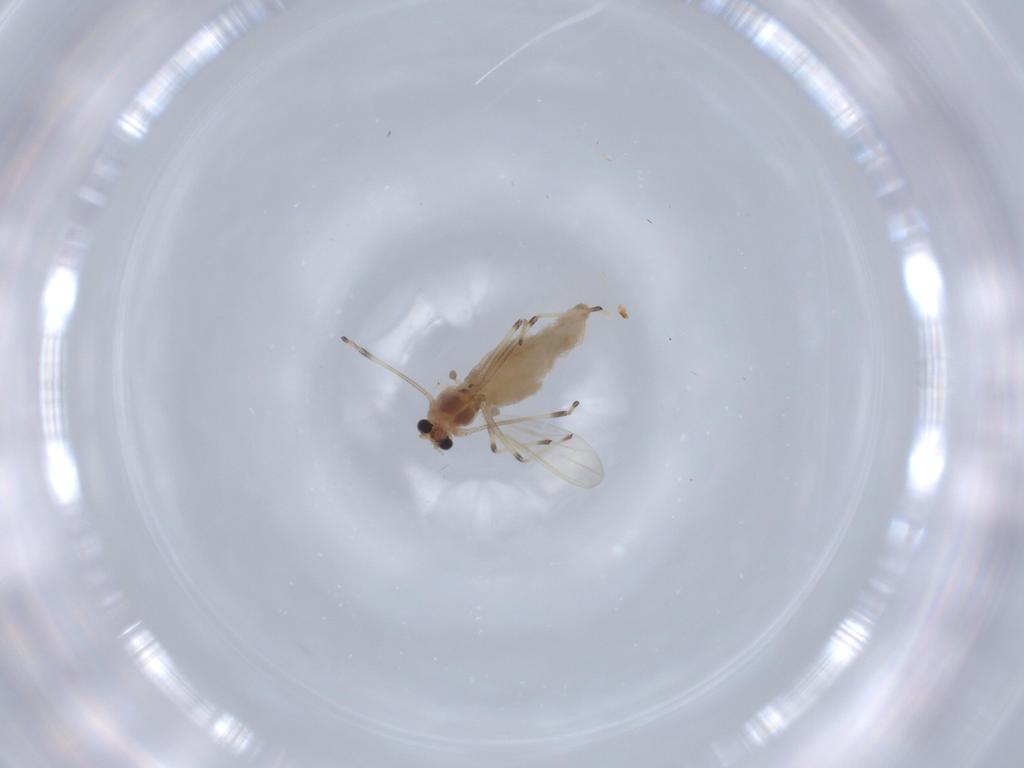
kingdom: Animalia
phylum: Arthropoda
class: Insecta
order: Diptera
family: Chironomidae
